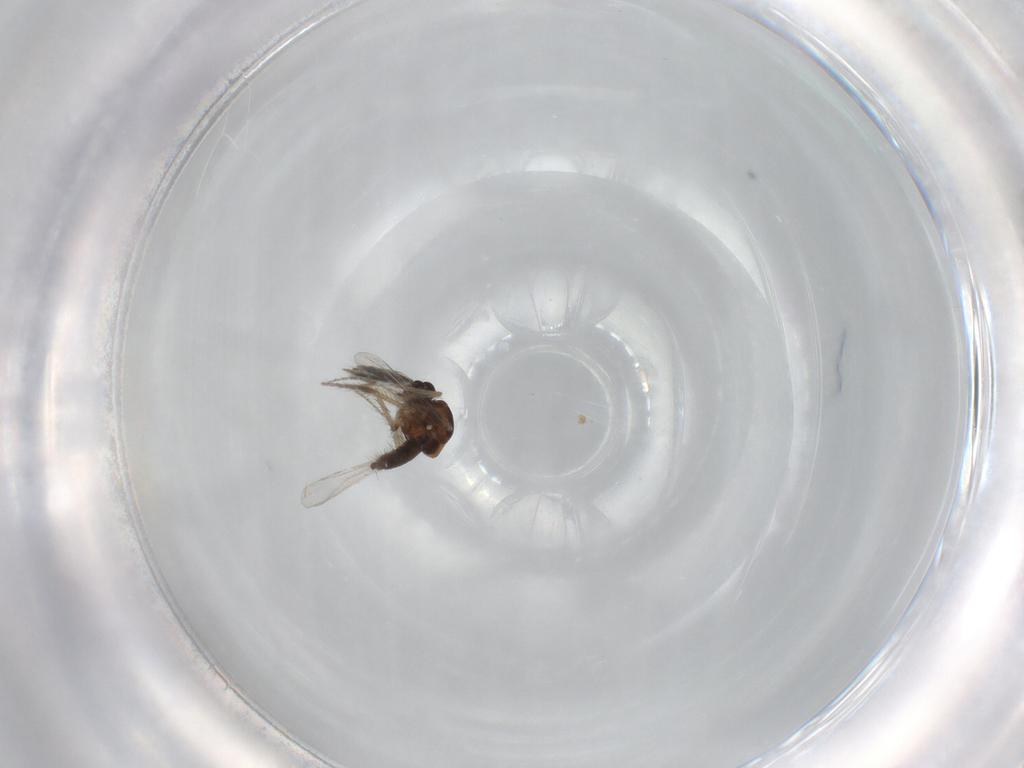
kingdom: Animalia
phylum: Arthropoda
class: Insecta
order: Diptera
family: Ceratopogonidae
